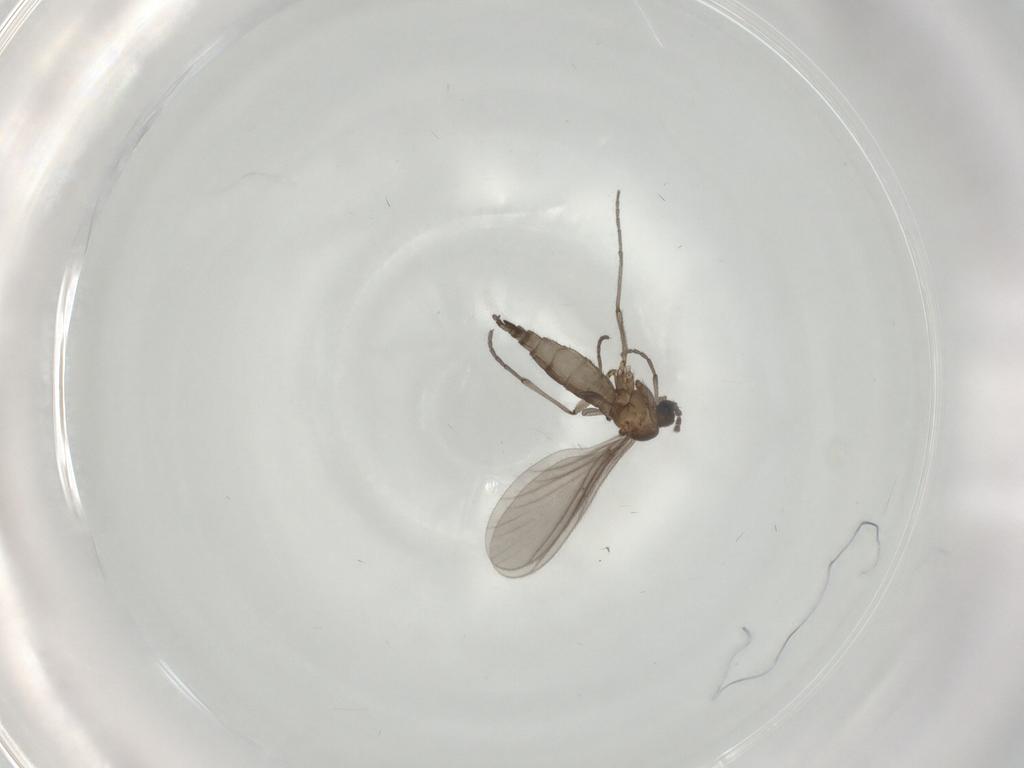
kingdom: Animalia
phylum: Arthropoda
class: Insecta
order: Diptera
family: Sciaridae
